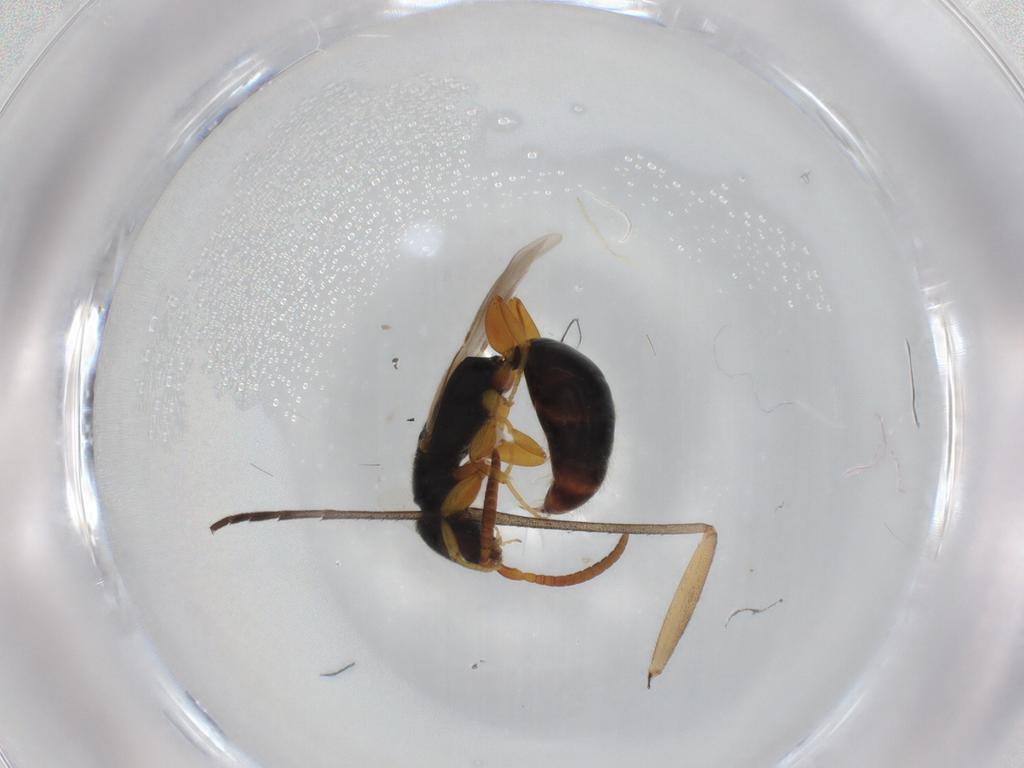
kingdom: Animalia
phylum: Arthropoda
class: Insecta
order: Hymenoptera
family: Bethylidae
